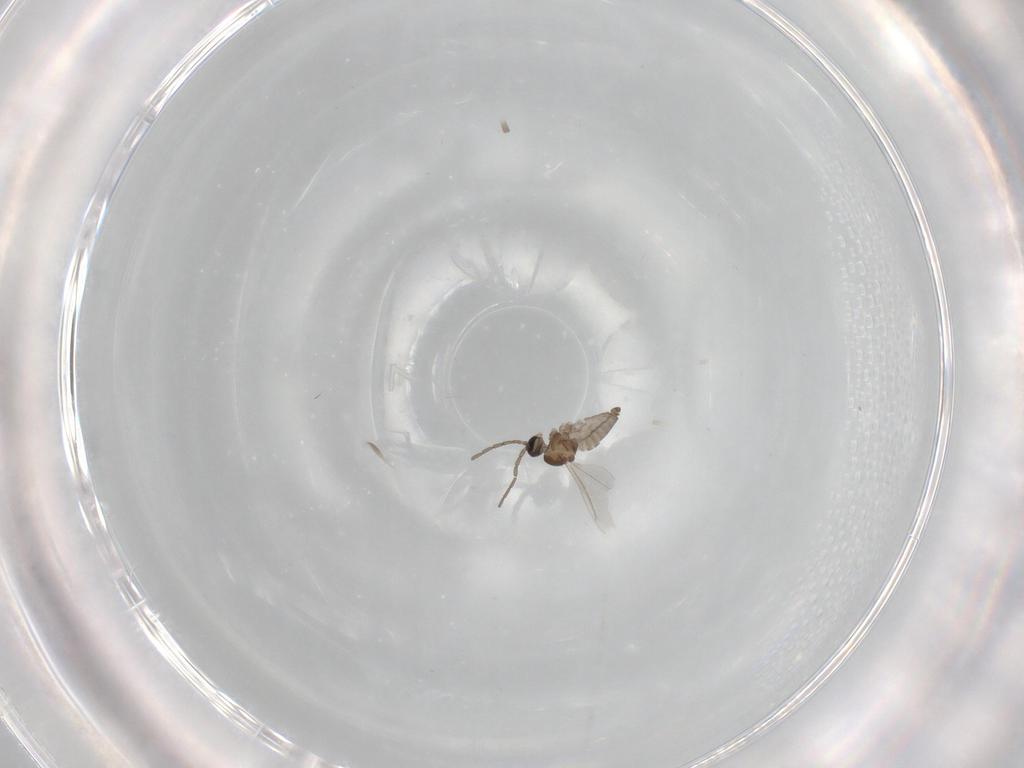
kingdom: Animalia
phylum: Arthropoda
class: Insecta
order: Diptera
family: Cecidomyiidae
